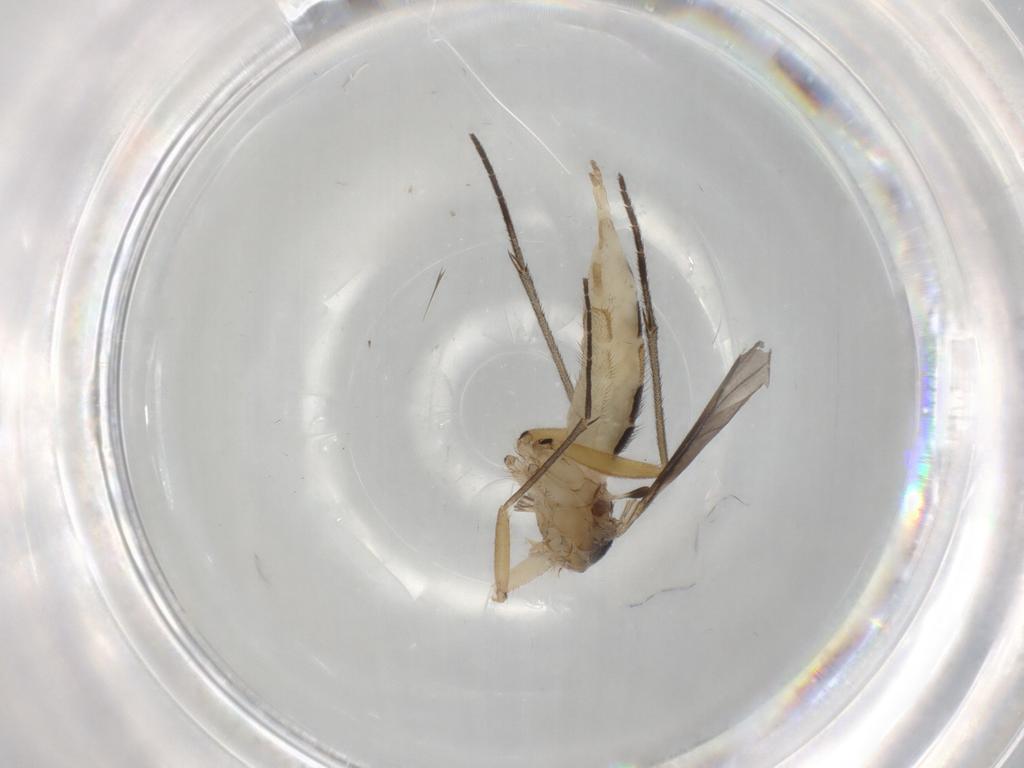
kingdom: Animalia
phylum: Arthropoda
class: Insecta
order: Diptera
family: Sciaridae
